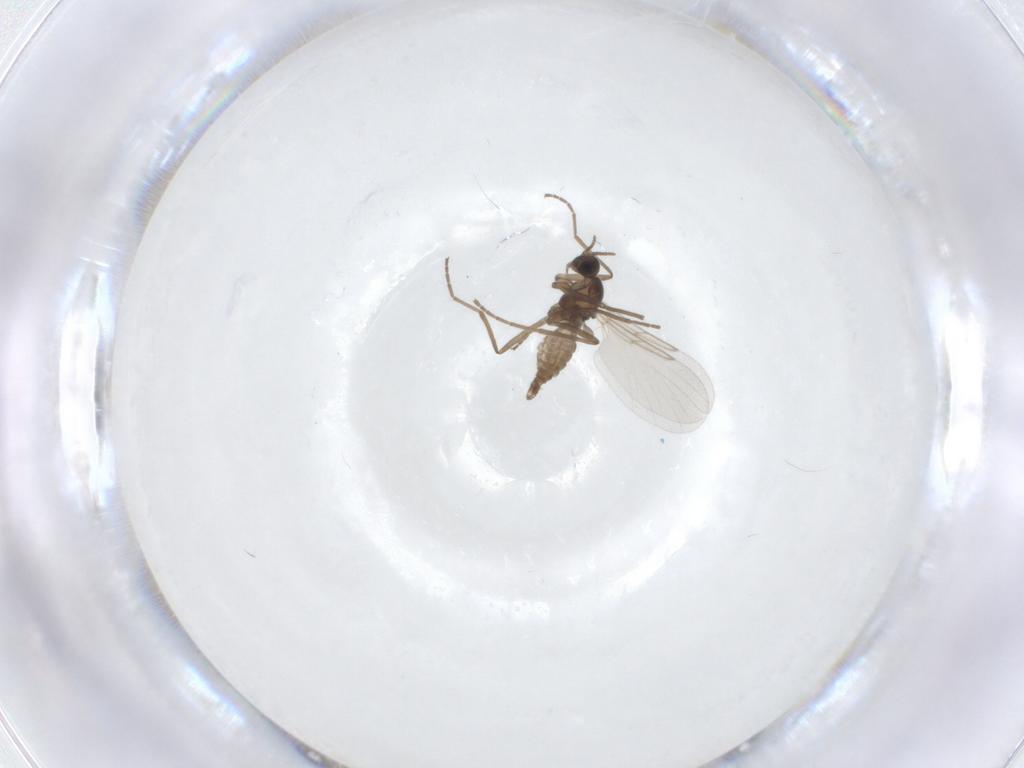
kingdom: Animalia
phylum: Arthropoda
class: Insecta
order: Diptera
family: Cecidomyiidae
